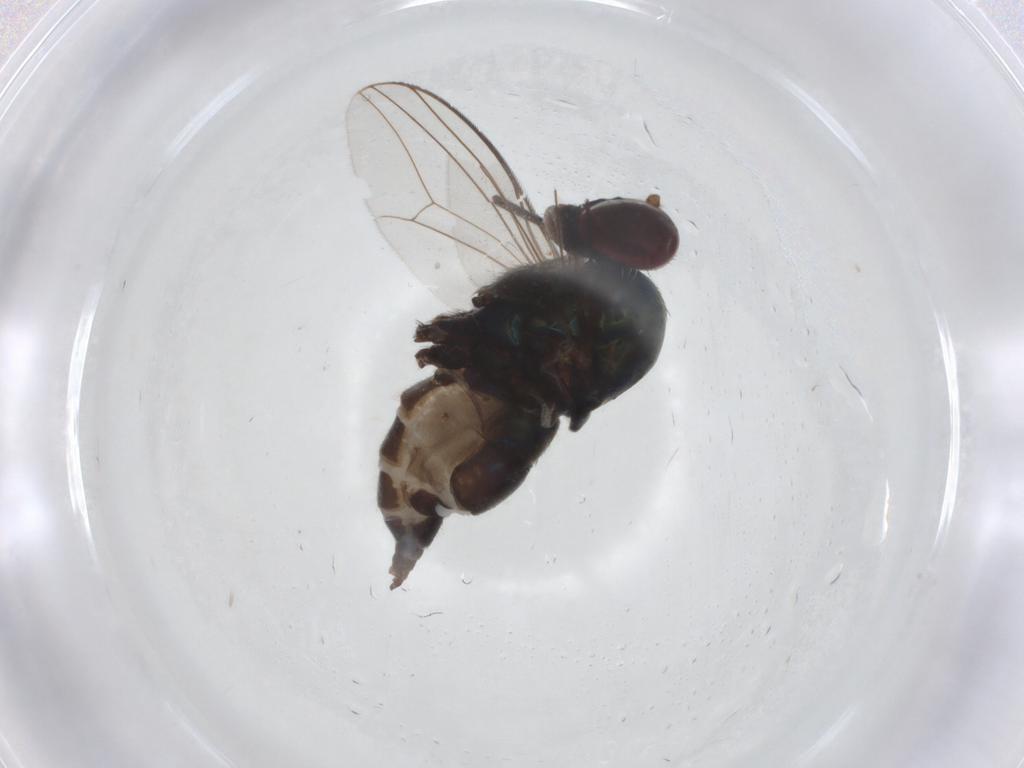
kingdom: Animalia
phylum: Arthropoda
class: Insecta
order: Diptera
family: Dolichopodidae
